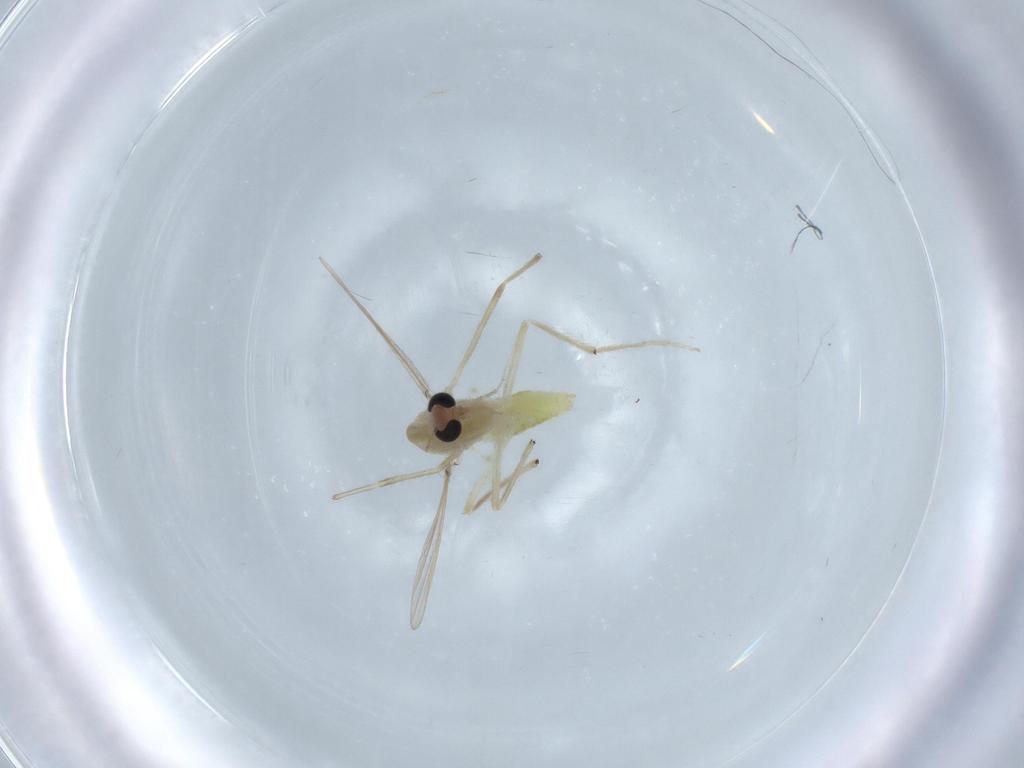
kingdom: Animalia
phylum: Arthropoda
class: Insecta
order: Diptera
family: Chironomidae
